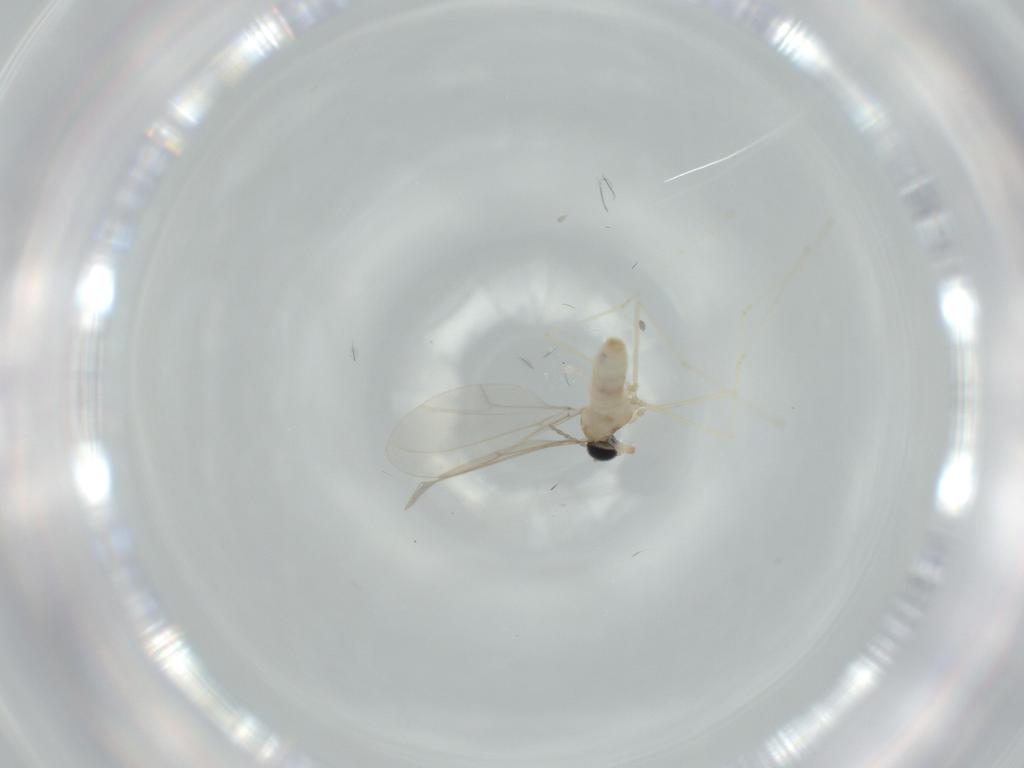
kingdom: Animalia
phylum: Arthropoda
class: Insecta
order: Diptera
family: Cecidomyiidae
